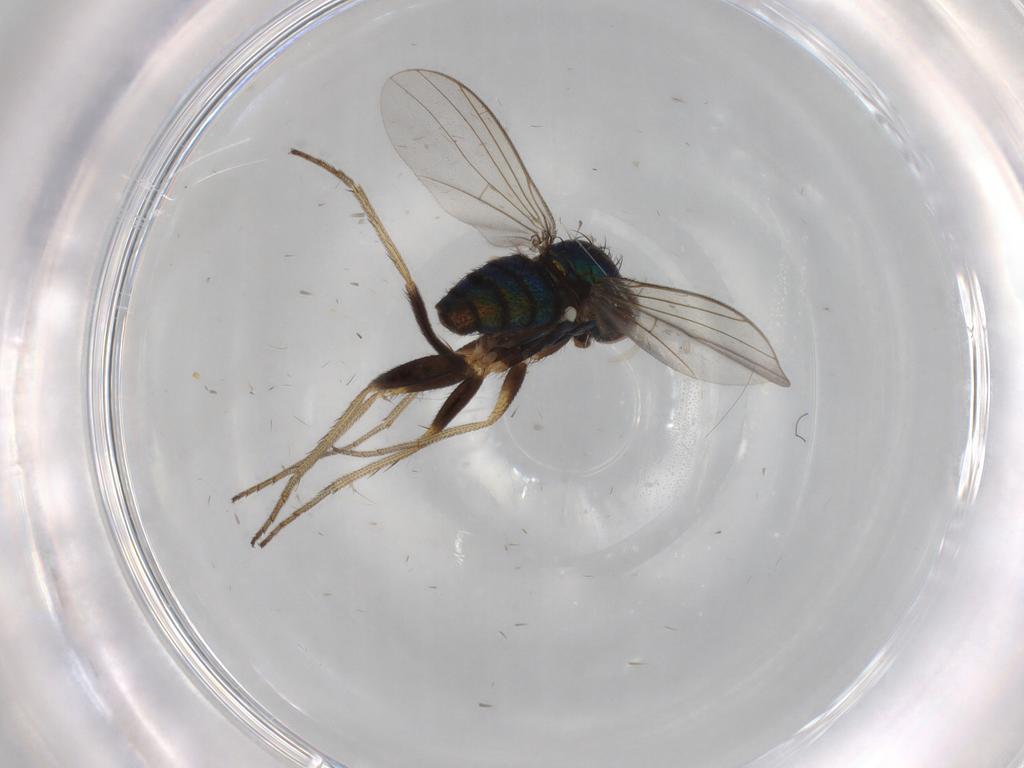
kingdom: Animalia
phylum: Arthropoda
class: Insecta
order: Diptera
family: Dolichopodidae
